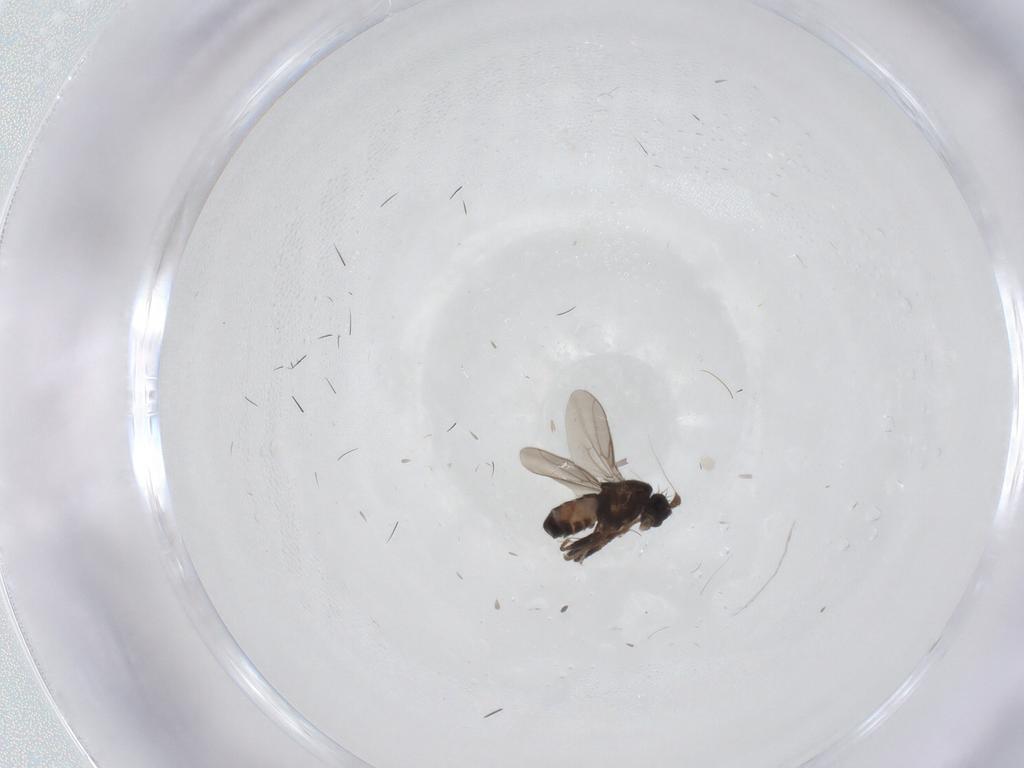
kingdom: Animalia
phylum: Arthropoda
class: Insecta
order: Diptera
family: Sphaeroceridae
